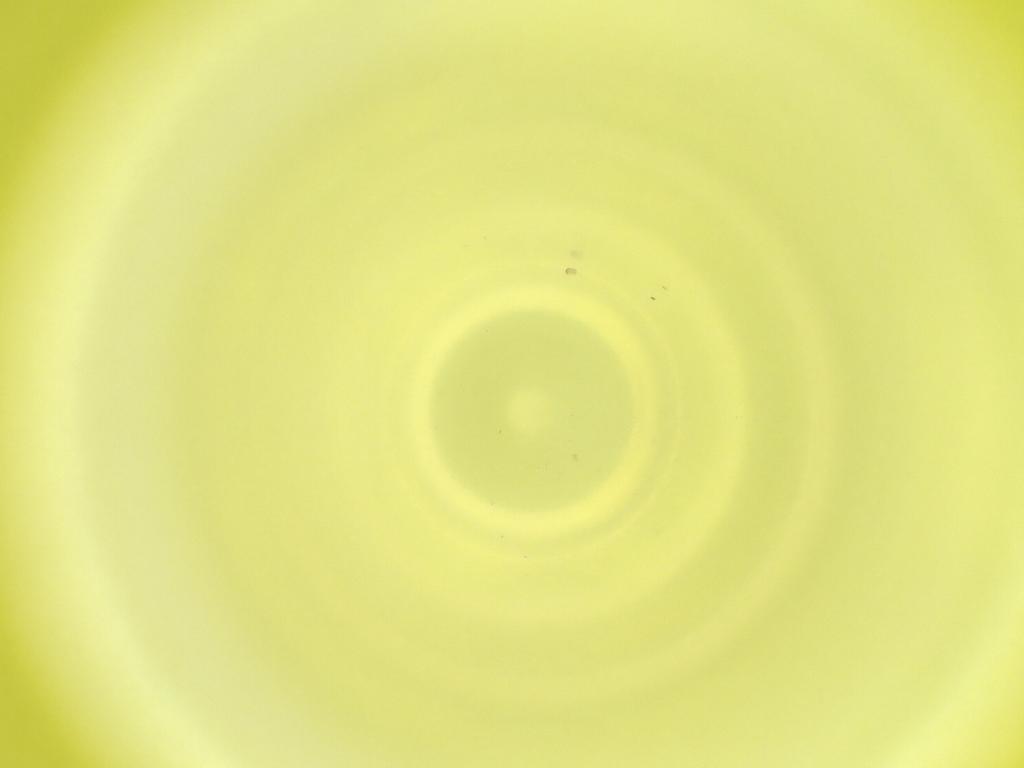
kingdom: Animalia
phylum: Arthropoda
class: Insecta
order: Diptera
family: Cecidomyiidae
